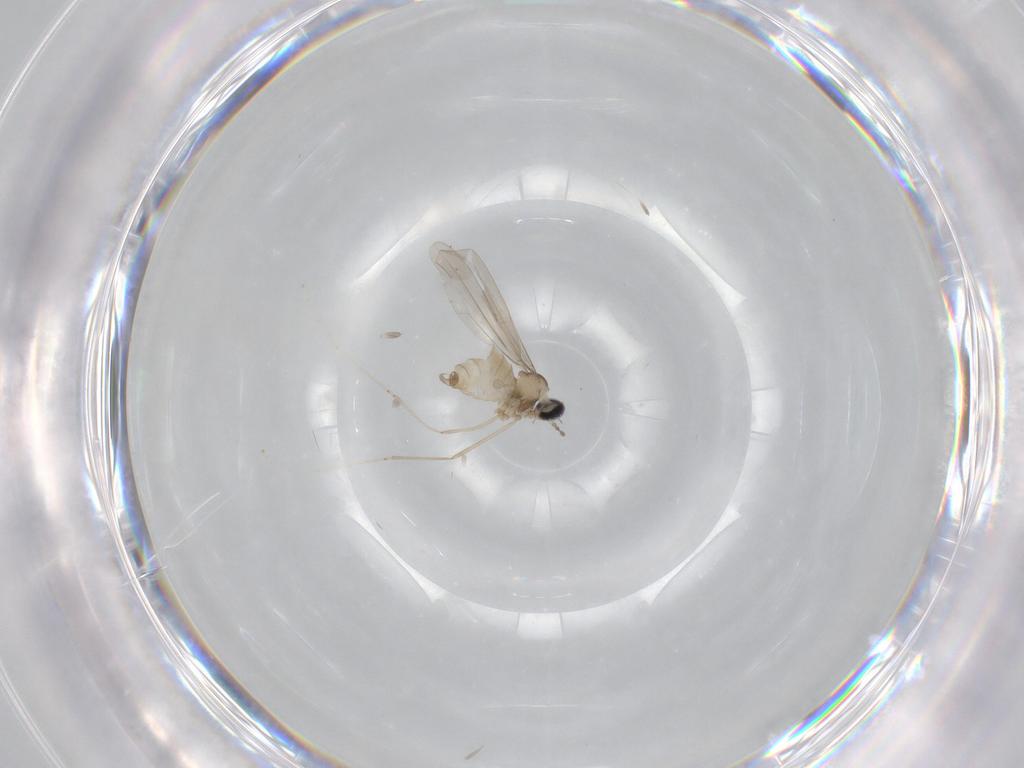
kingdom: Animalia
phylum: Arthropoda
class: Insecta
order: Diptera
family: Cecidomyiidae
